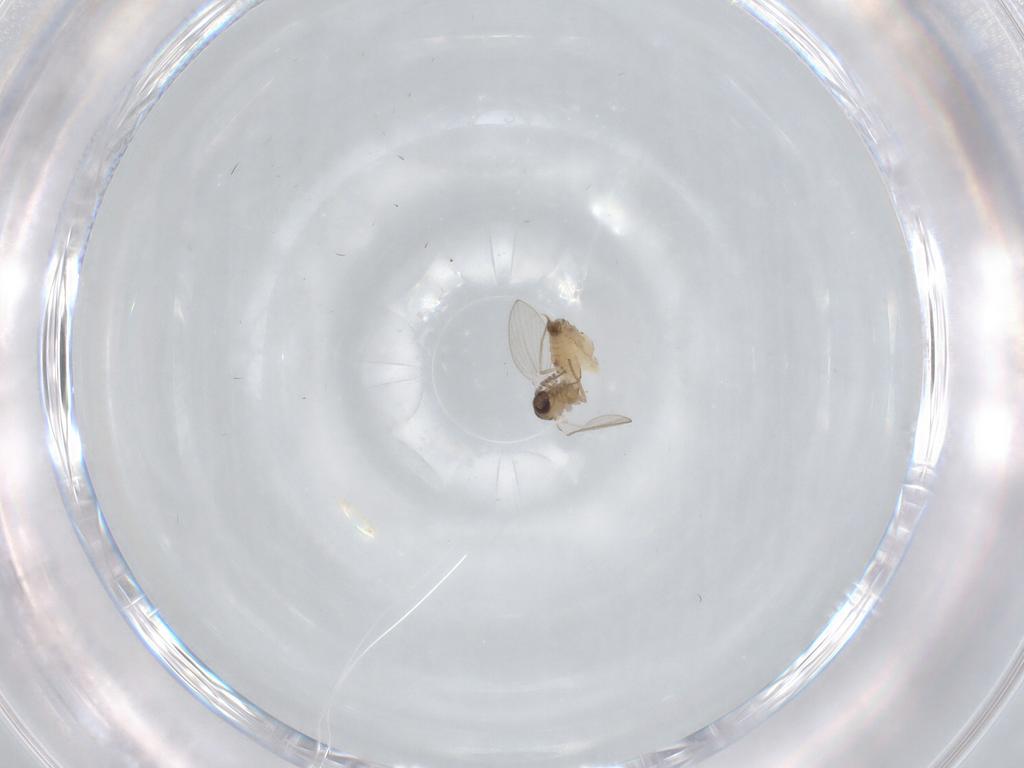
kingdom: Animalia
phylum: Arthropoda
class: Insecta
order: Diptera
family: Psychodidae
